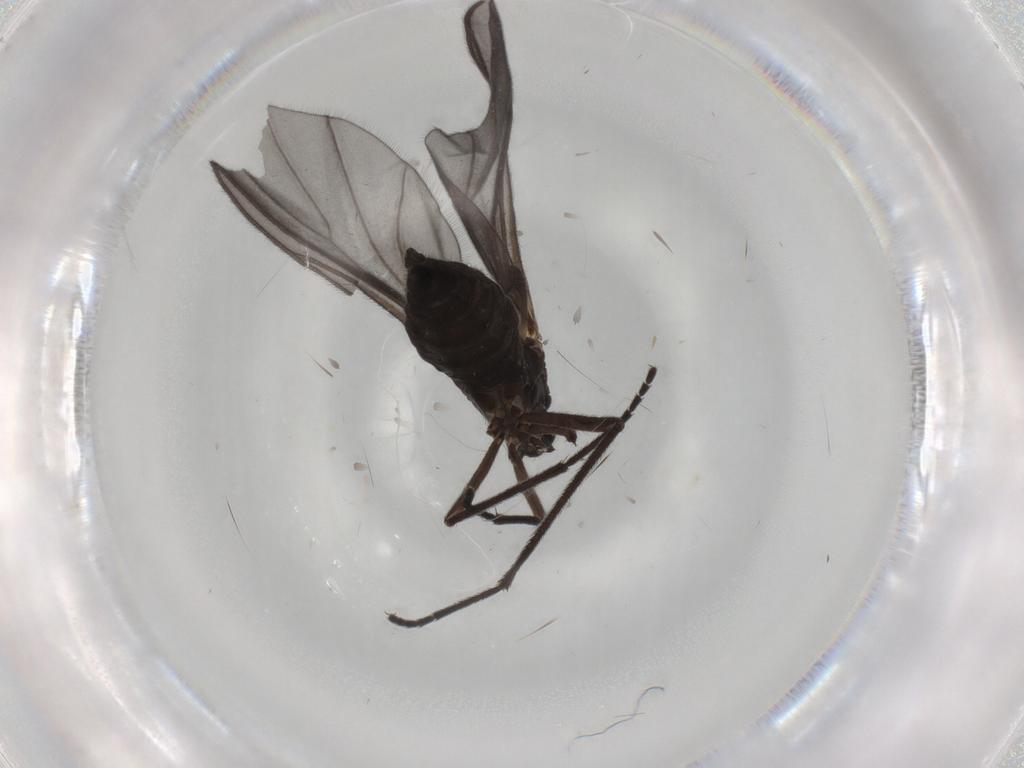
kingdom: Animalia
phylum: Arthropoda
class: Insecta
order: Diptera
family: Sciaridae
